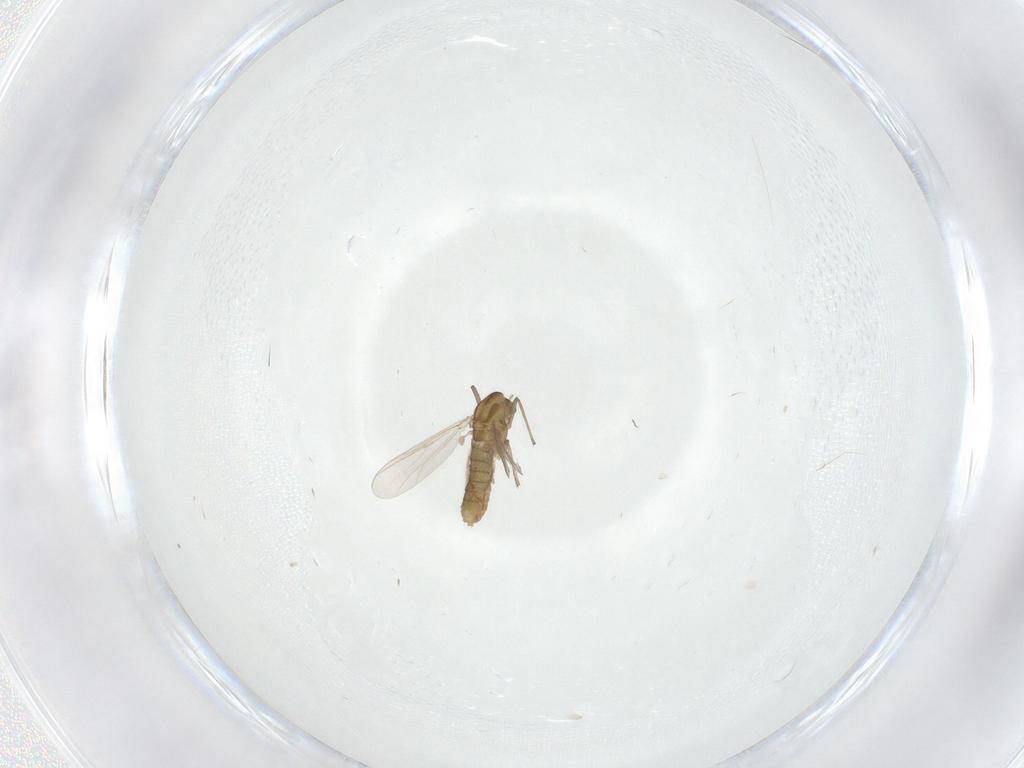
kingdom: Animalia
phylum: Arthropoda
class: Insecta
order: Diptera
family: Chironomidae
